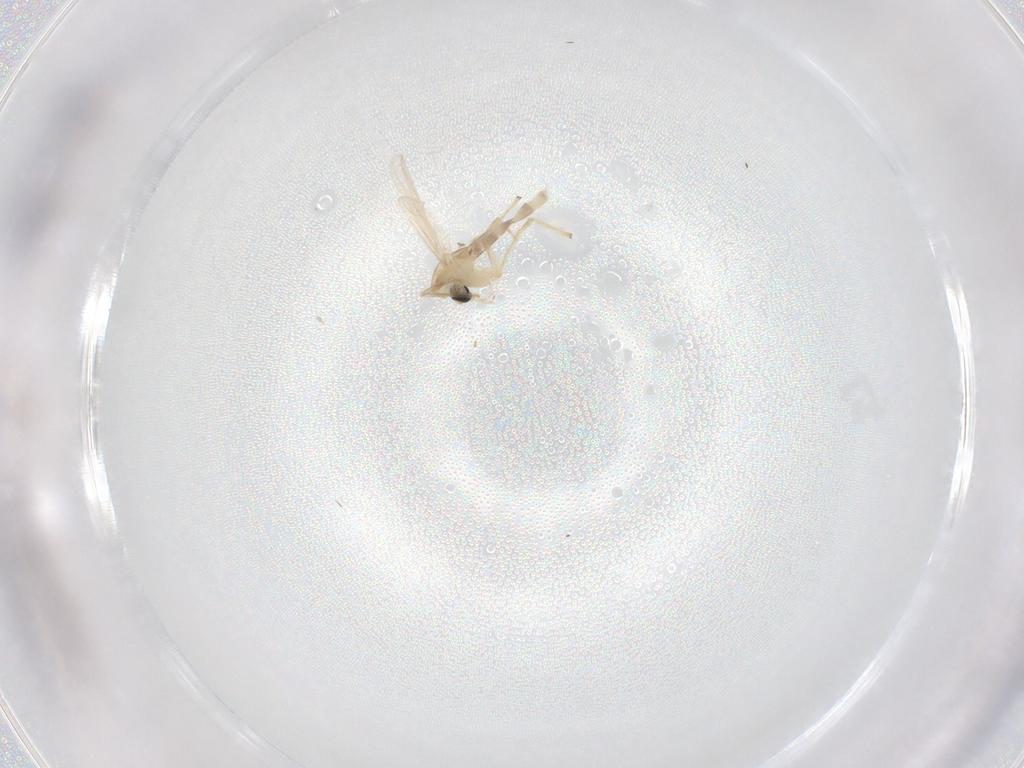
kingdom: Animalia
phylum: Arthropoda
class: Insecta
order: Diptera
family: Chironomidae
